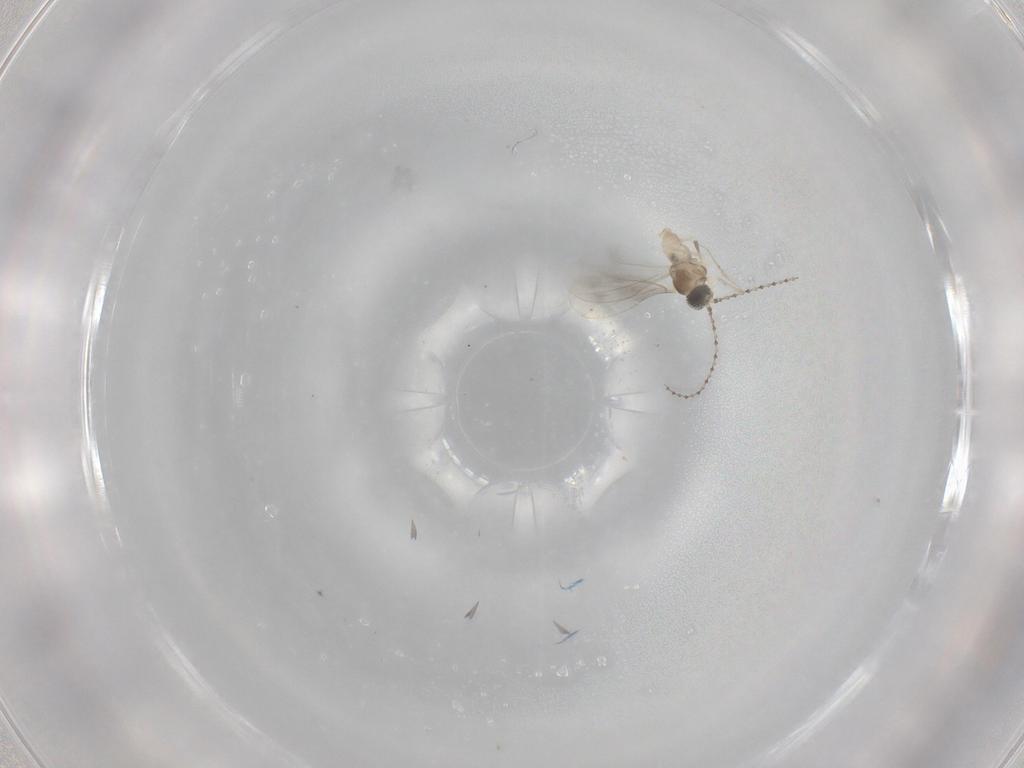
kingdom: Animalia
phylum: Arthropoda
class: Insecta
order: Diptera
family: Cecidomyiidae
